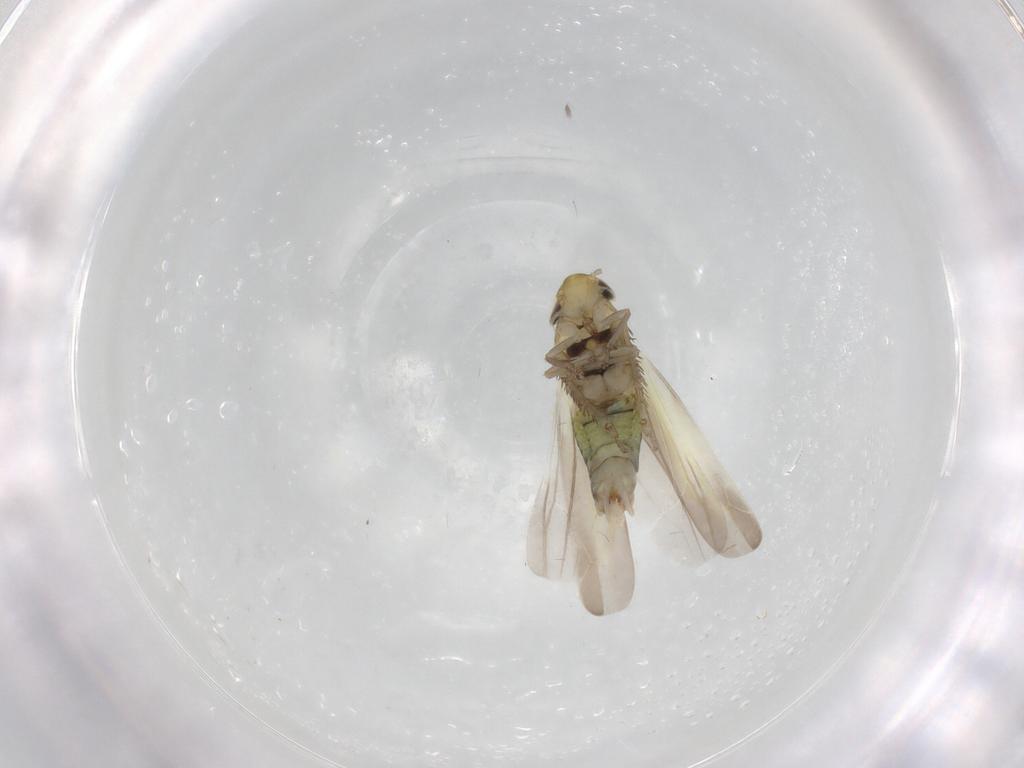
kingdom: Animalia
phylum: Arthropoda
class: Insecta
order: Hemiptera
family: Cicadellidae
